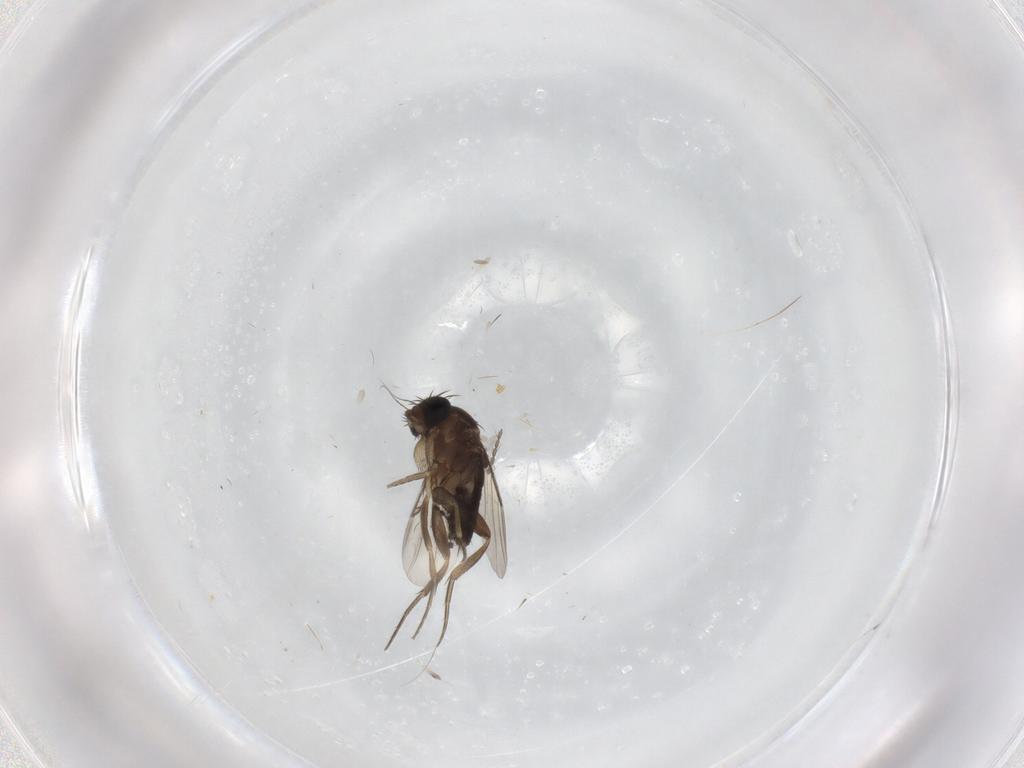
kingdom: Animalia
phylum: Arthropoda
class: Insecta
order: Diptera
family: Phoridae
